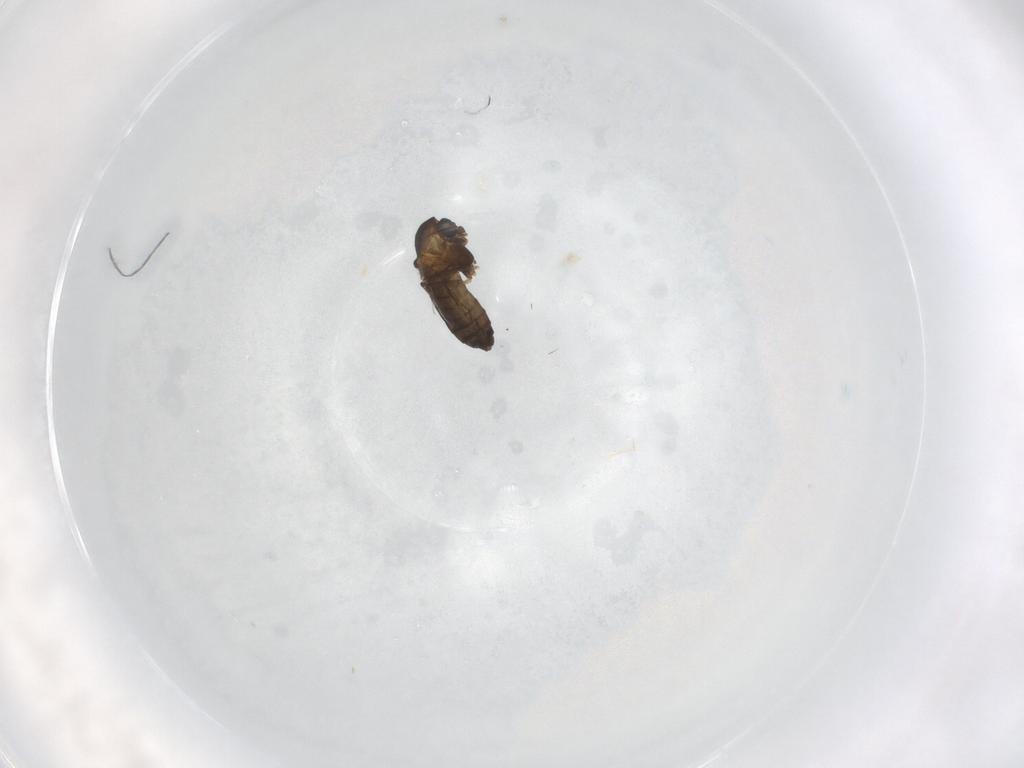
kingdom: Animalia
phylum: Arthropoda
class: Insecta
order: Diptera
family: Chironomidae
